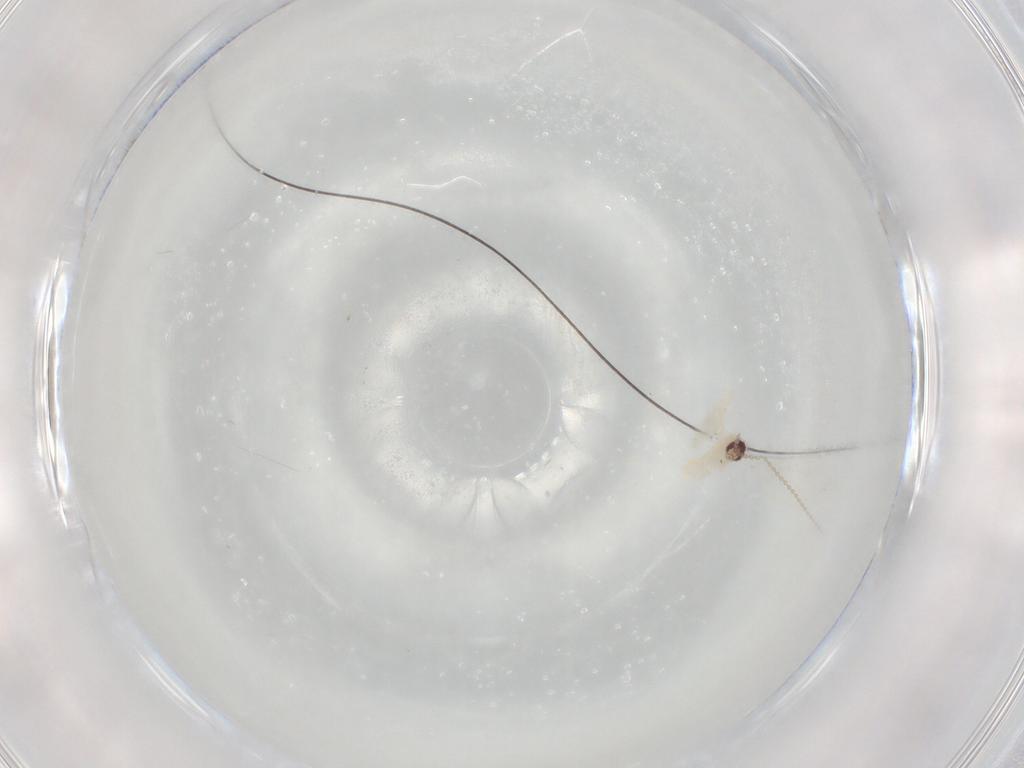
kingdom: Animalia
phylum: Arthropoda
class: Insecta
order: Diptera
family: Cecidomyiidae
